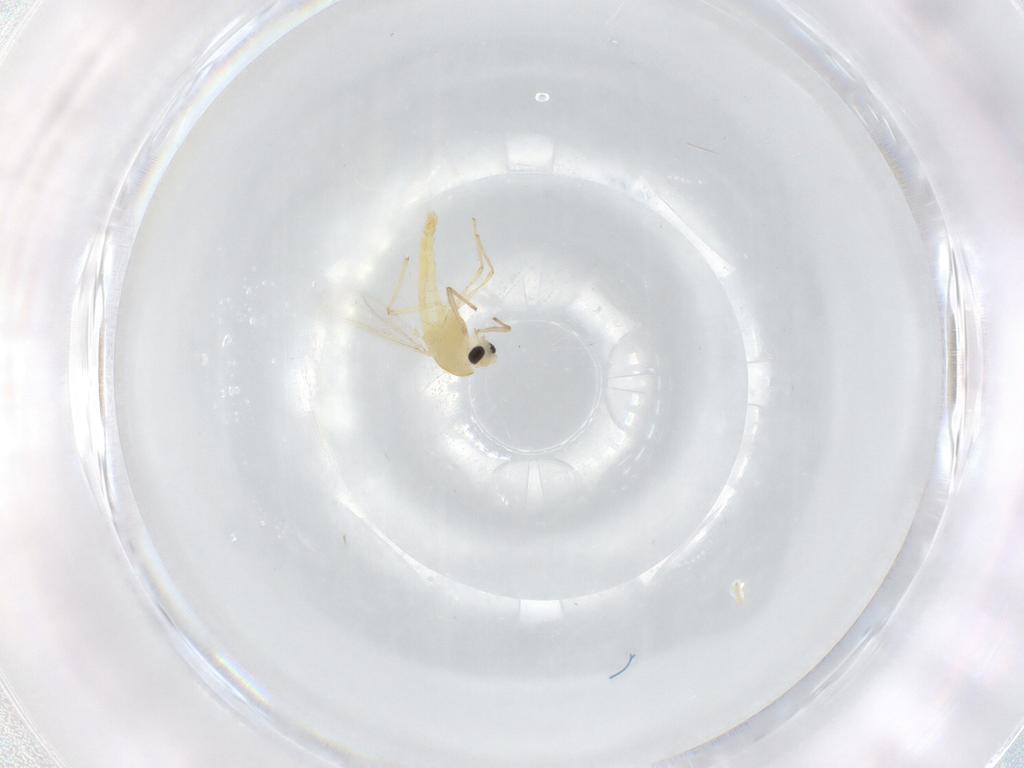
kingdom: Animalia
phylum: Arthropoda
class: Insecta
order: Diptera
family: Chironomidae
